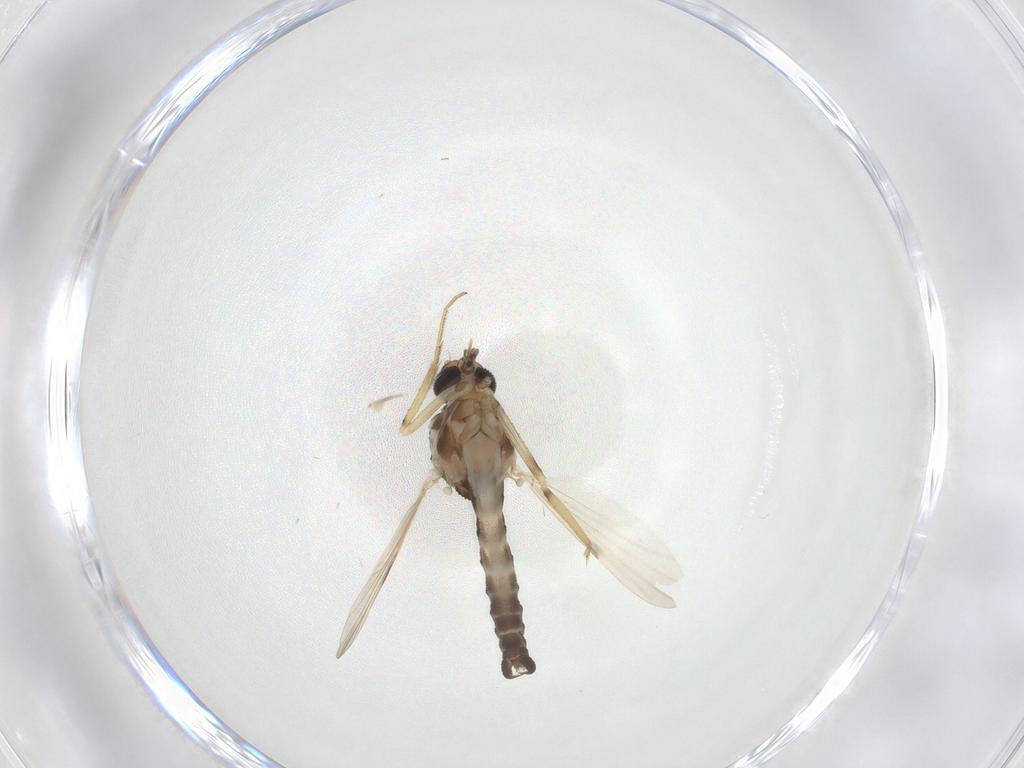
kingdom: Animalia
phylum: Arthropoda
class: Insecta
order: Diptera
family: Ceratopogonidae
